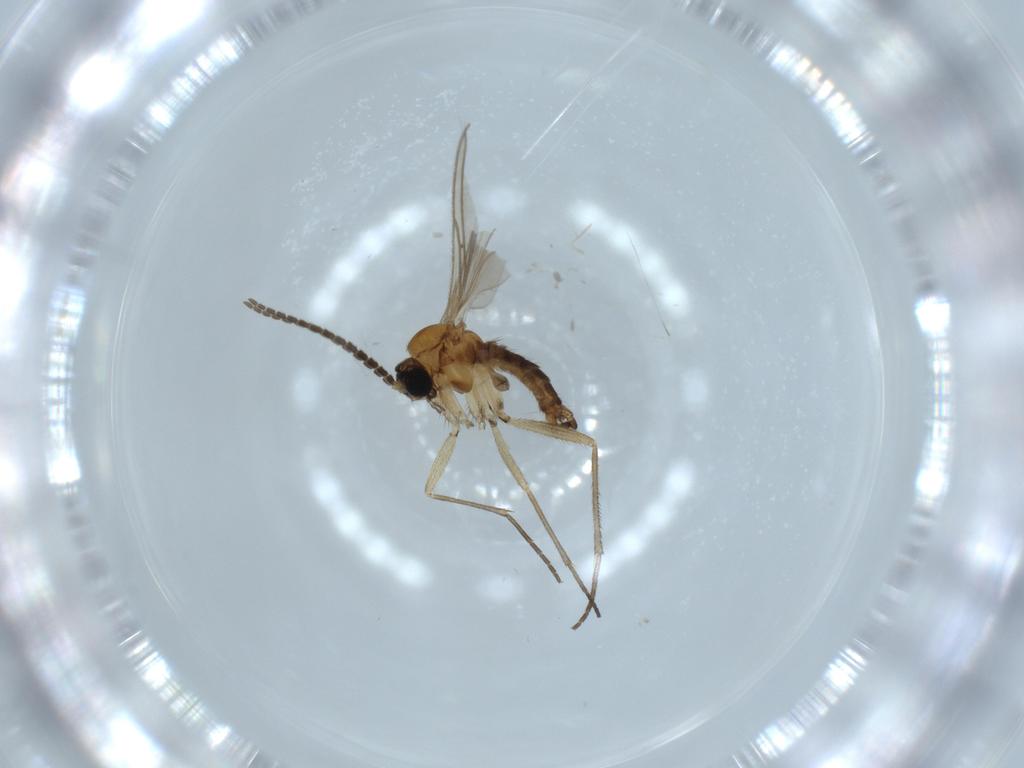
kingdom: Animalia
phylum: Arthropoda
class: Insecta
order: Diptera
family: Sciaridae
